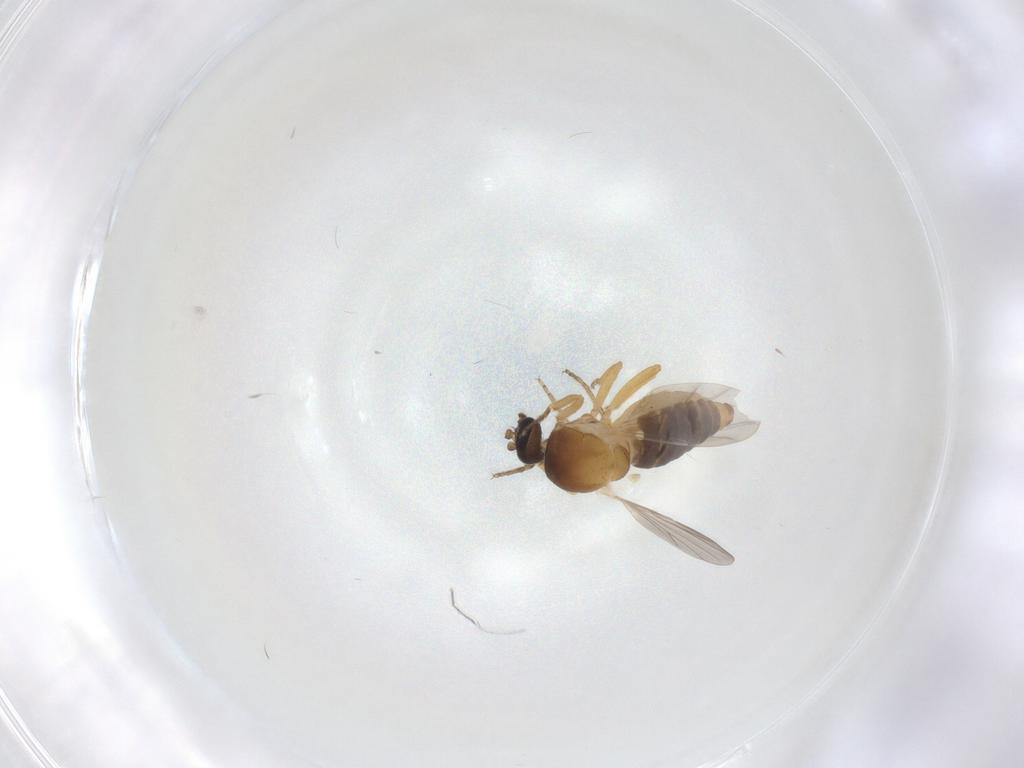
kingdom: Animalia
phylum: Arthropoda
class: Insecta
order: Diptera
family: Ceratopogonidae
